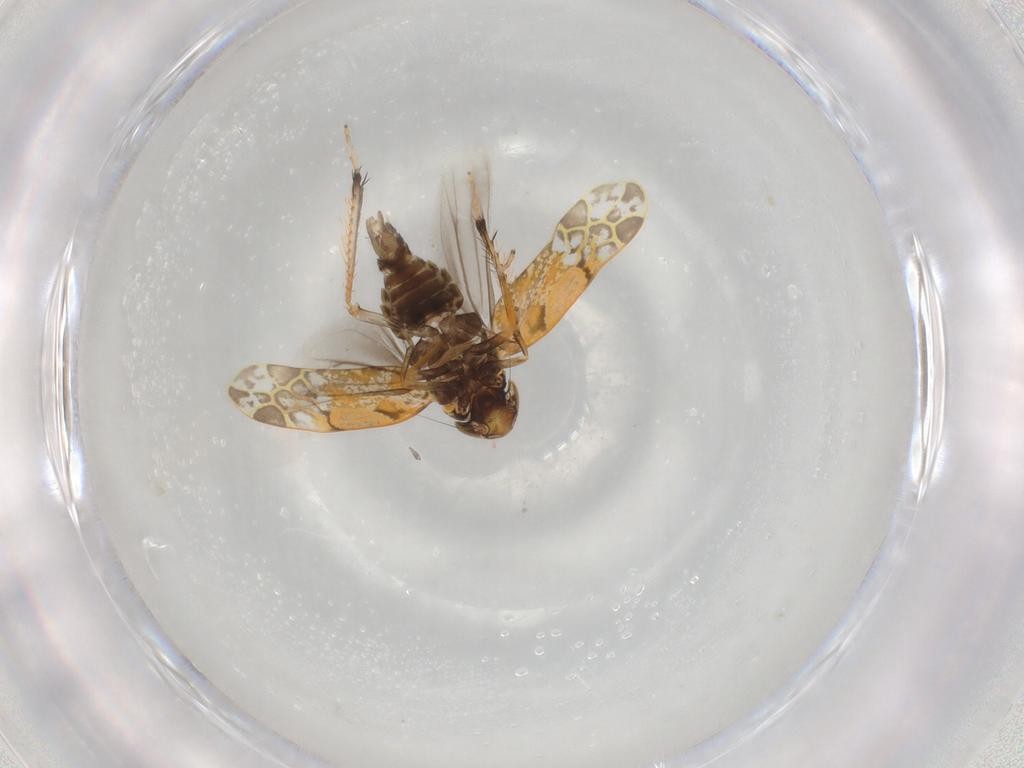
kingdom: Animalia
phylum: Arthropoda
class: Insecta
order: Hemiptera
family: Cicadellidae
